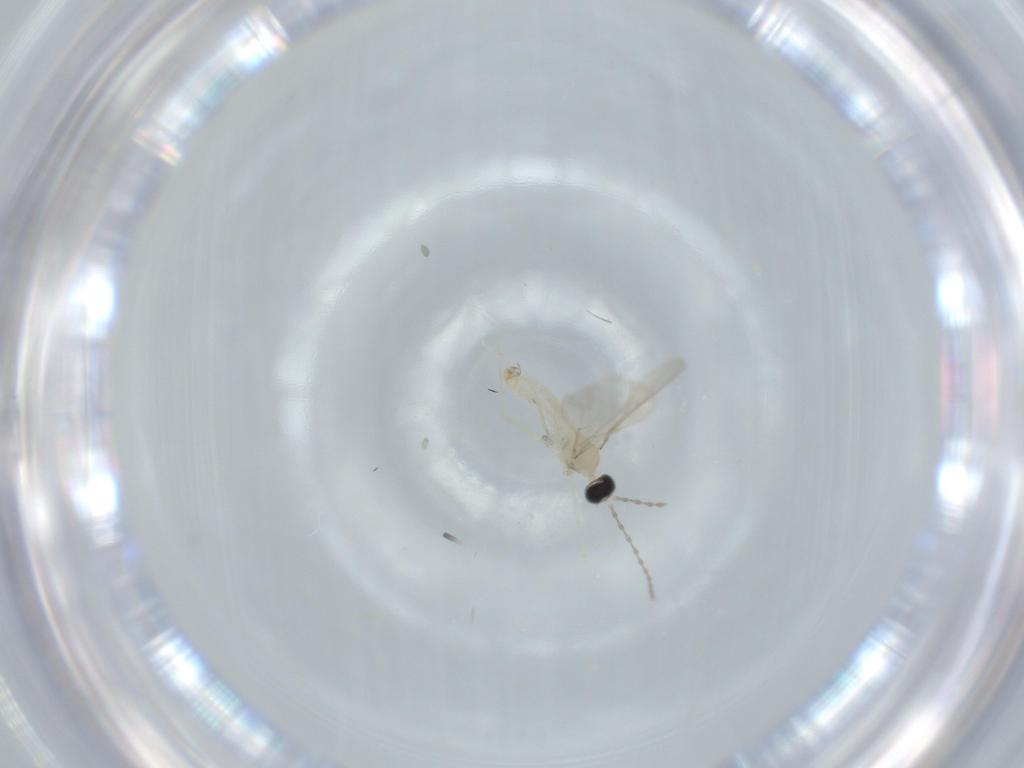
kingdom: Animalia
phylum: Arthropoda
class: Insecta
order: Diptera
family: Cecidomyiidae
